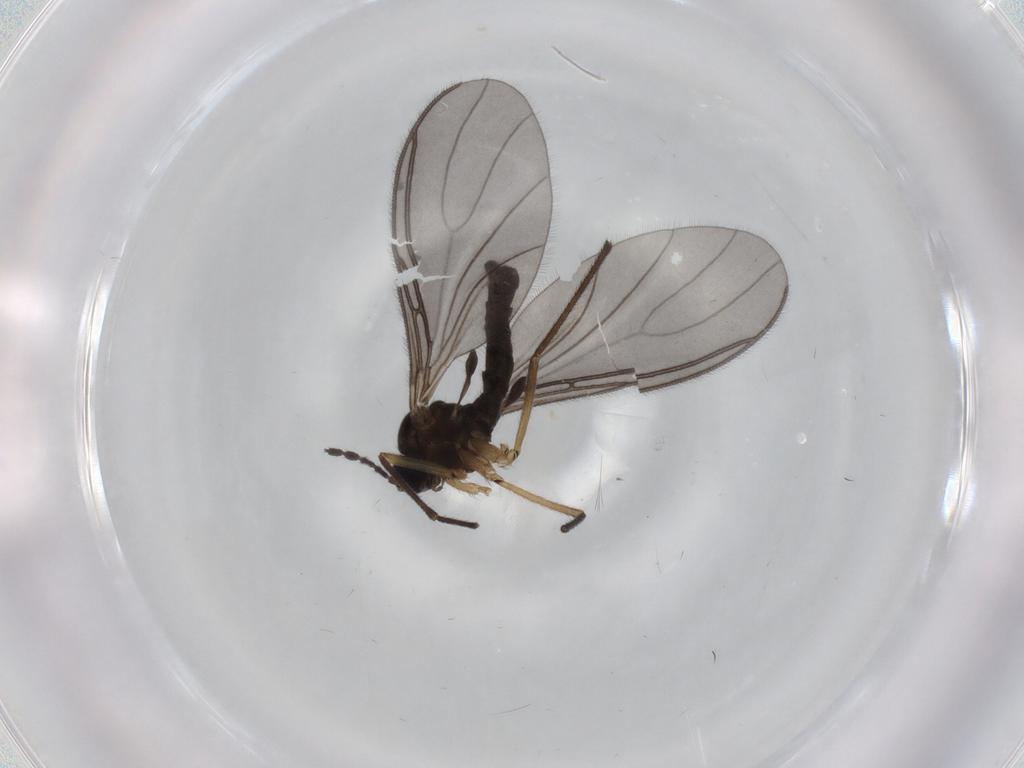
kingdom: Animalia
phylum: Arthropoda
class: Insecta
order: Diptera
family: Sciaridae
